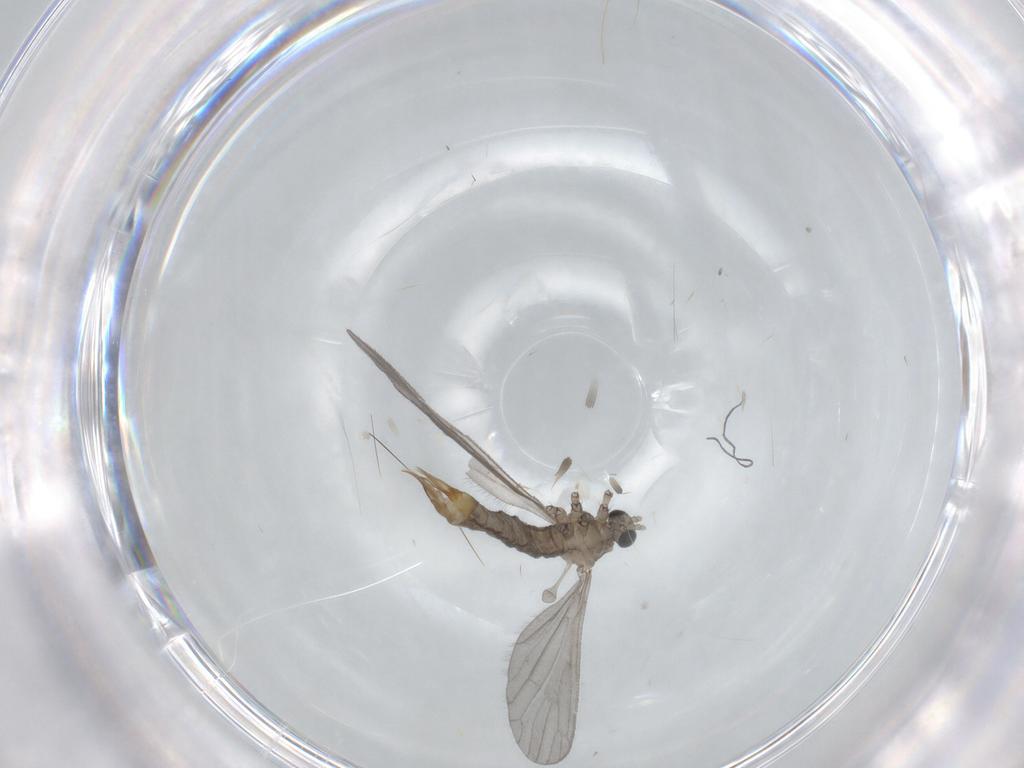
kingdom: Animalia
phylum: Arthropoda
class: Insecta
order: Diptera
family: Limoniidae
